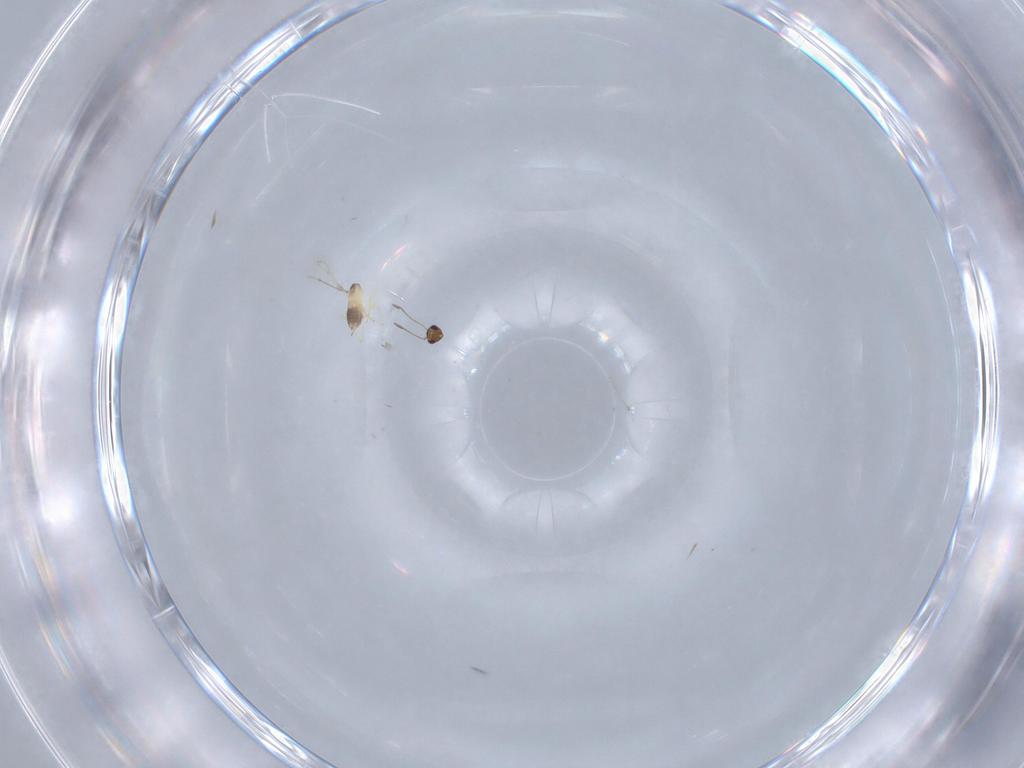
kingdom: Animalia
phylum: Arthropoda
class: Insecta
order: Hymenoptera
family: Mymaridae
